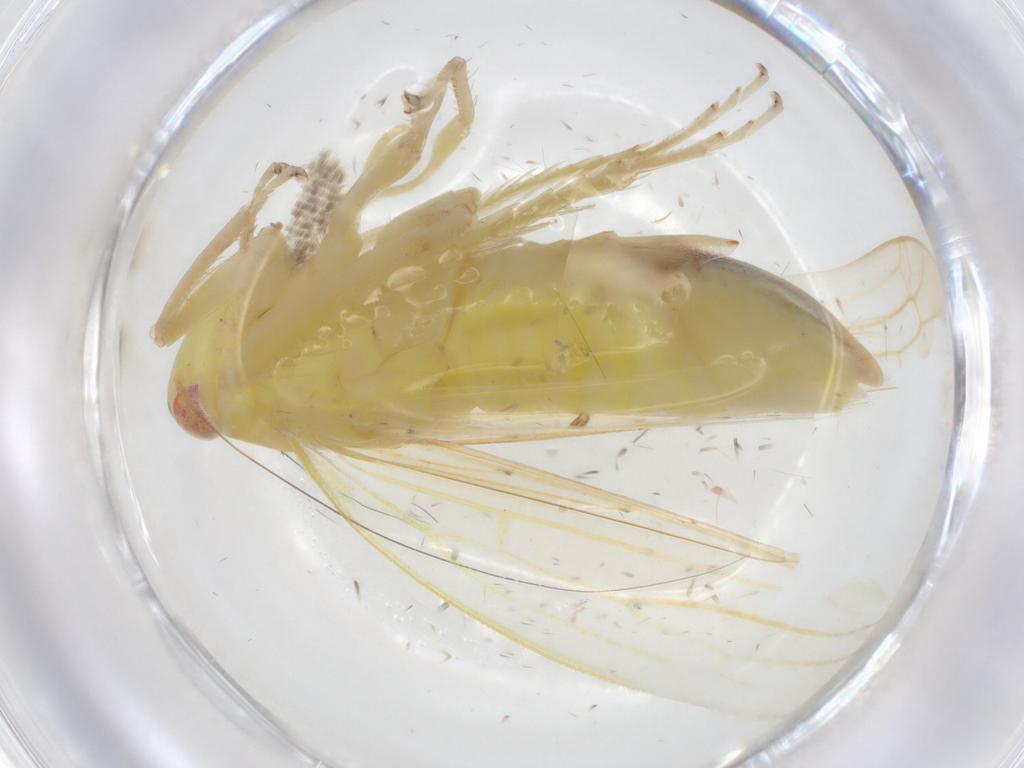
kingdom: Animalia
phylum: Arthropoda
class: Insecta
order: Hemiptera
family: Cicadellidae
